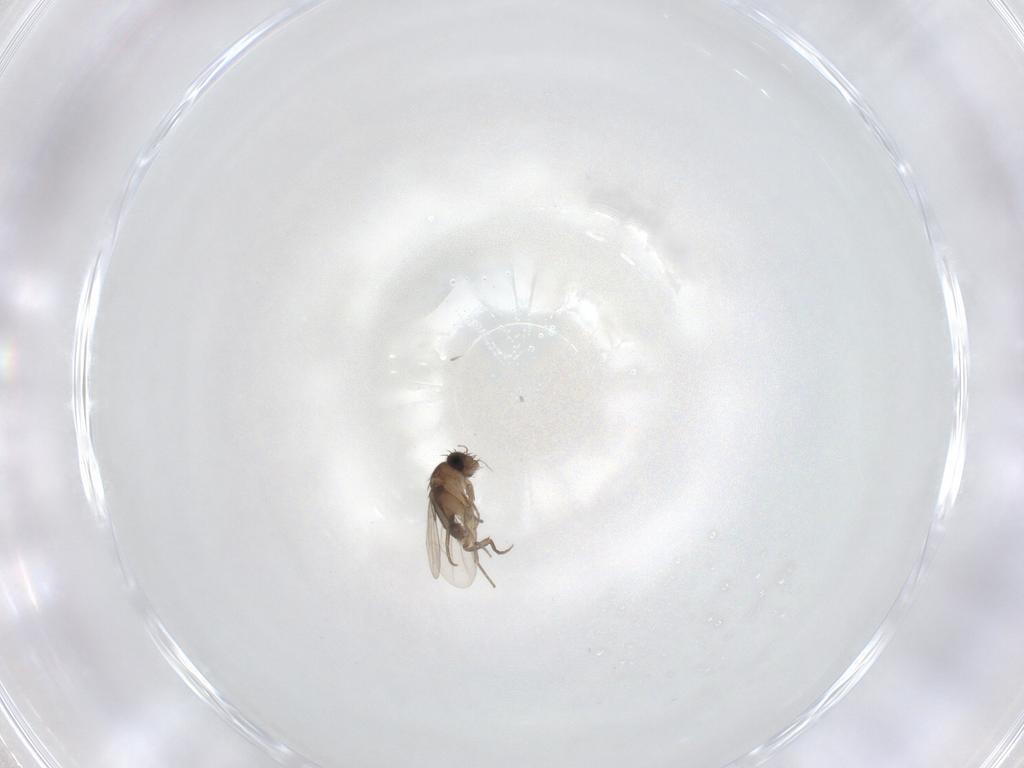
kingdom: Animalia
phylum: Arthropoda
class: Insecta
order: Diptera
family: Phoridae
